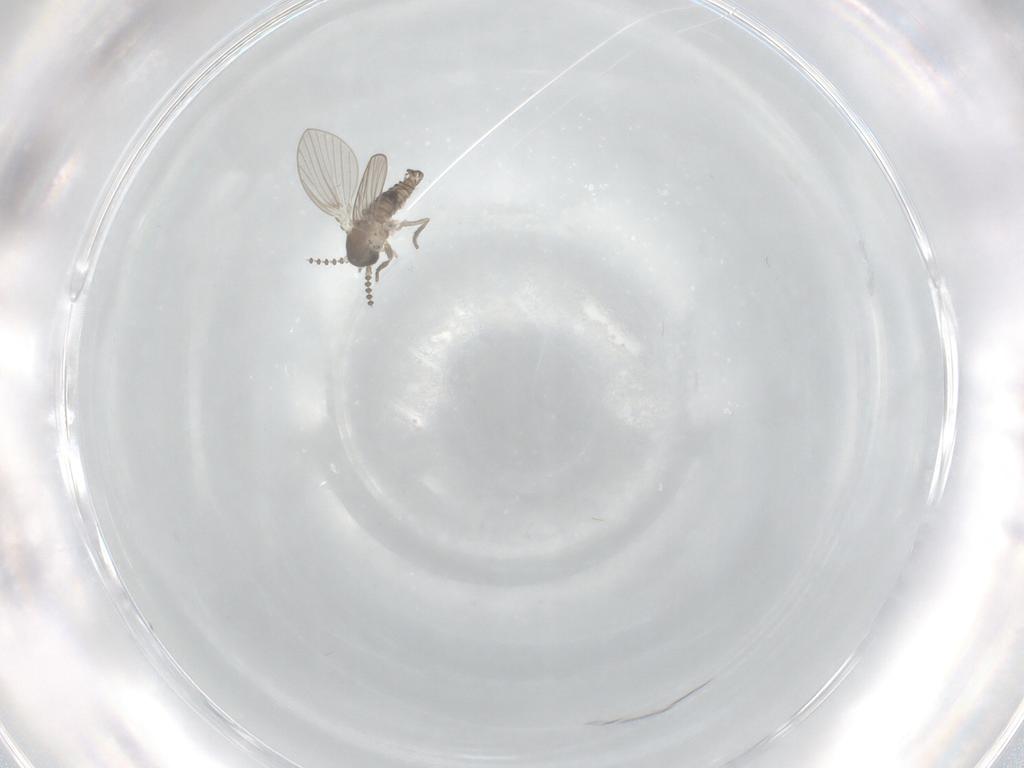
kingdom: Animalia
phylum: Arthropoda
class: Insecta
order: Diptera
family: Psychodidae
